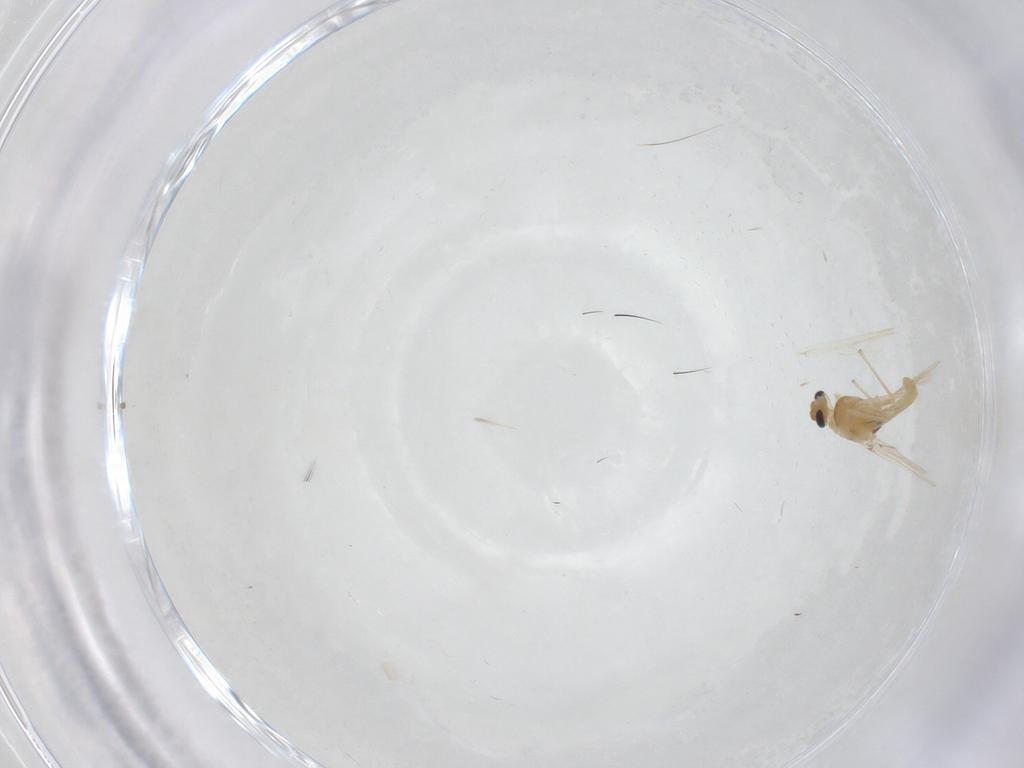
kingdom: Animalia
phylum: Arthropoda
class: Insecta
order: Diptera
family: Chironomidae
